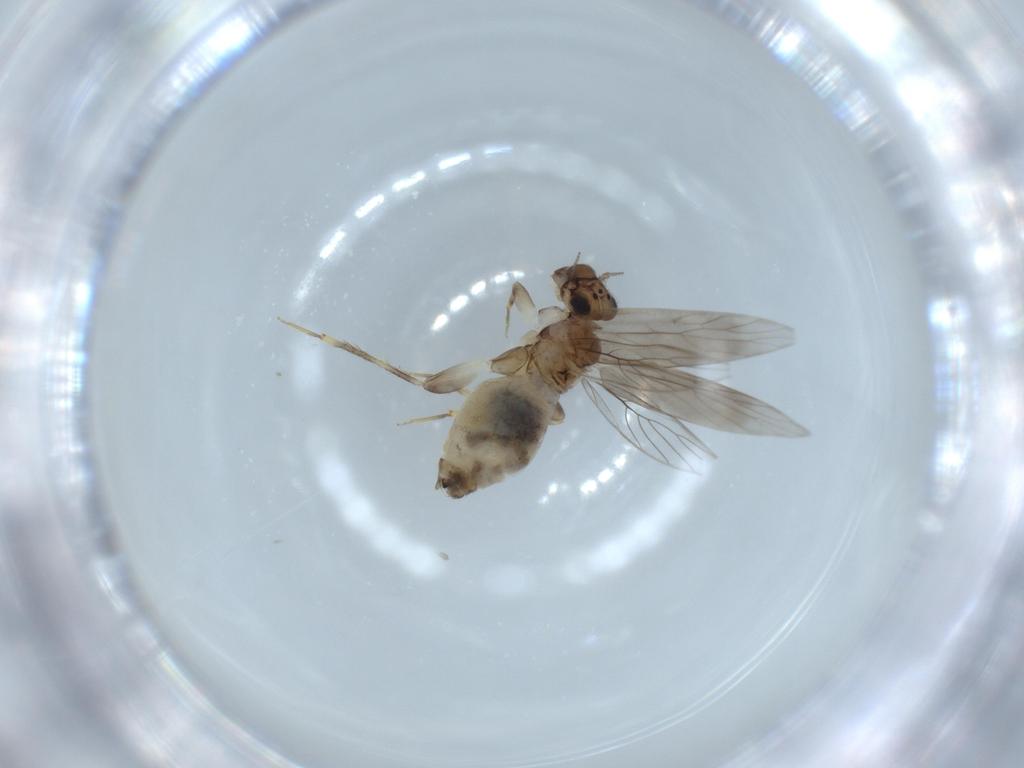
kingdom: Animalia
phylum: Arthropoda
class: Insecta
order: Psocodea
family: Lepidopsocidae
